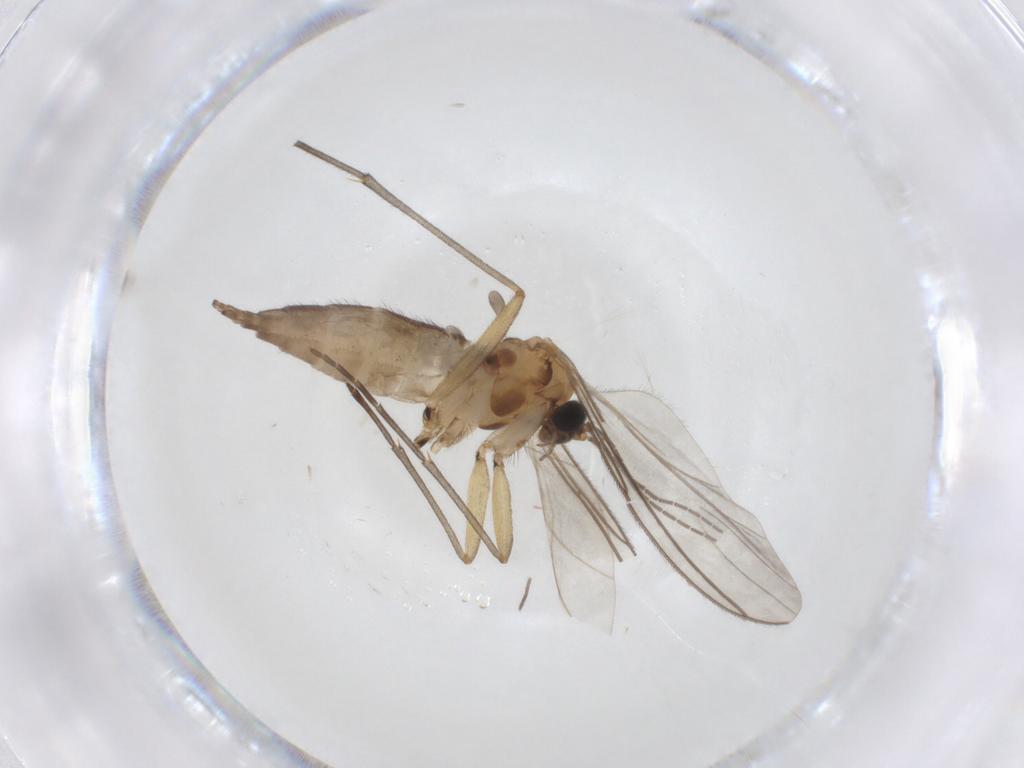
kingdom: Animalia
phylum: Arthropoda
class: Insecta
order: Diptera
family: Sciaridae
